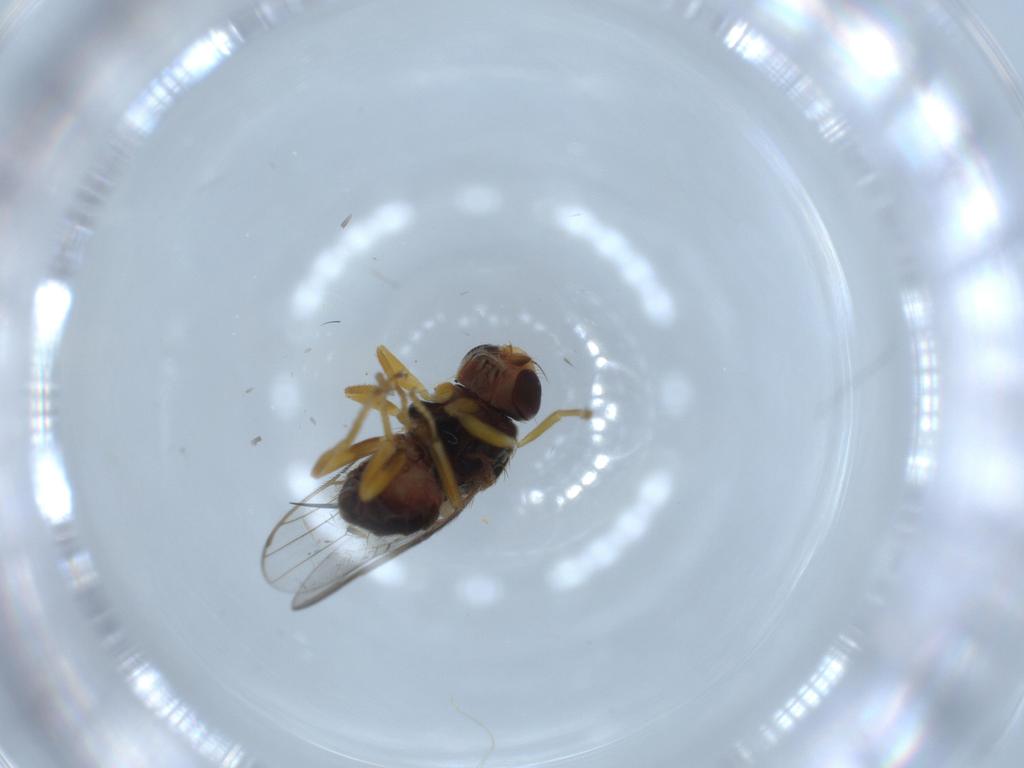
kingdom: Animalia
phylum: Arthropoda
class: Insecta
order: Diptera
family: Chloropidae
